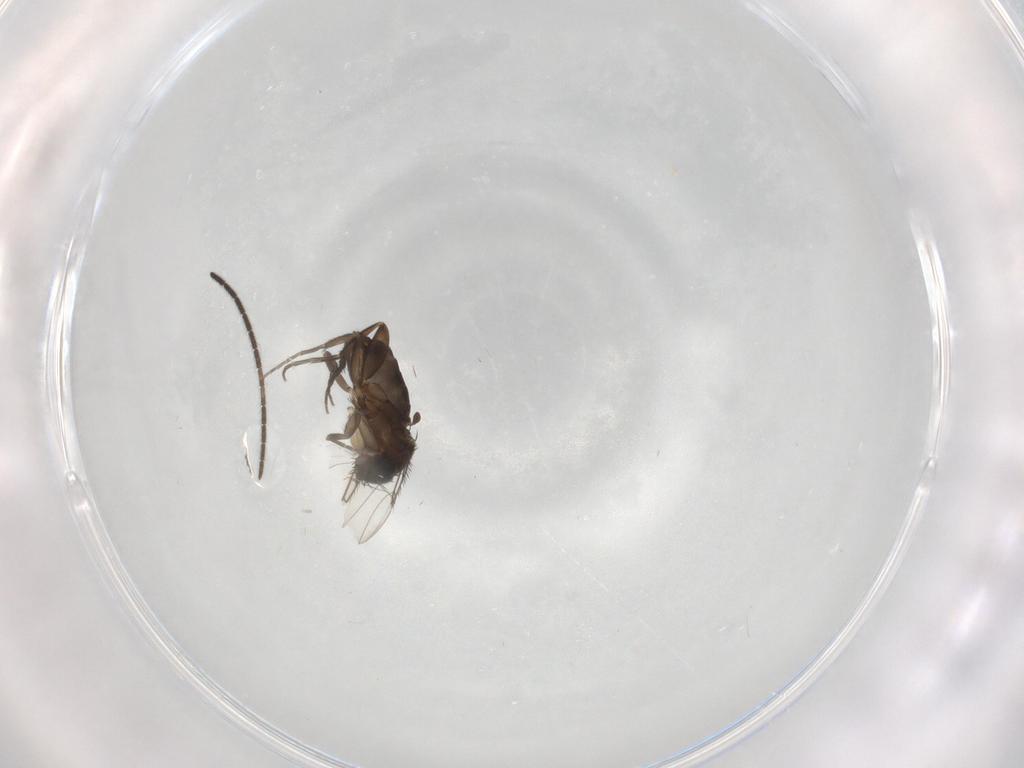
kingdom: Animalia
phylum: Arthropoda
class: Insecta
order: Diptera
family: Phoridae
